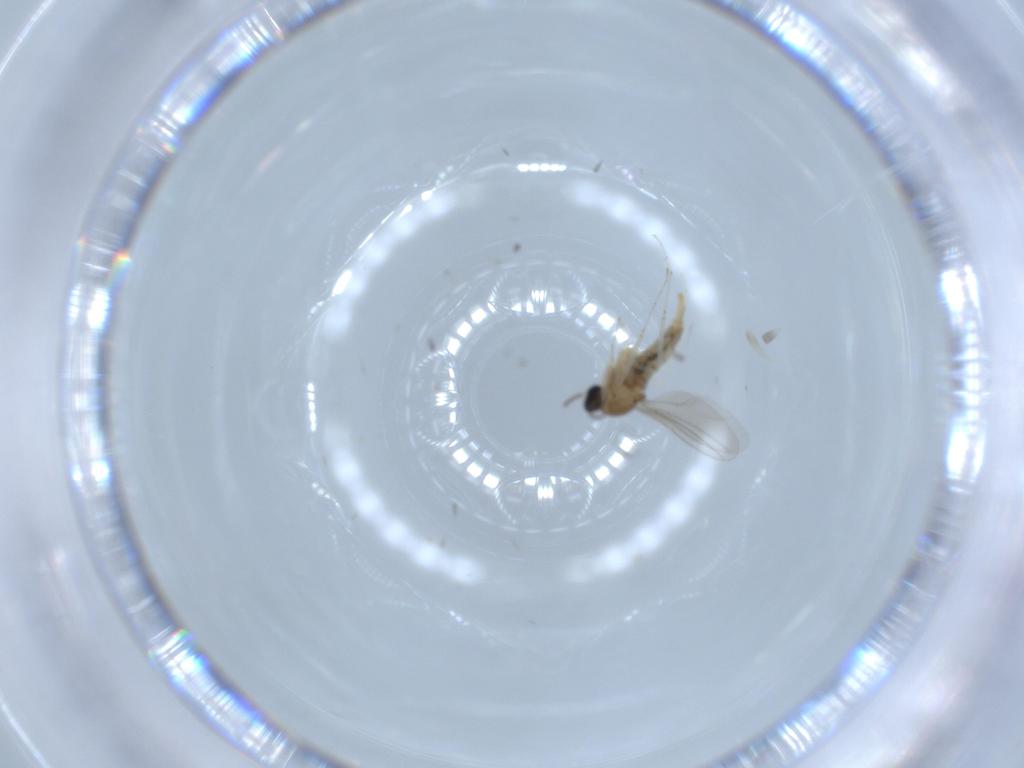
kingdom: Animalia
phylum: Arthropoda
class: Insecta
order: Diptera
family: Cecidomyiidae
